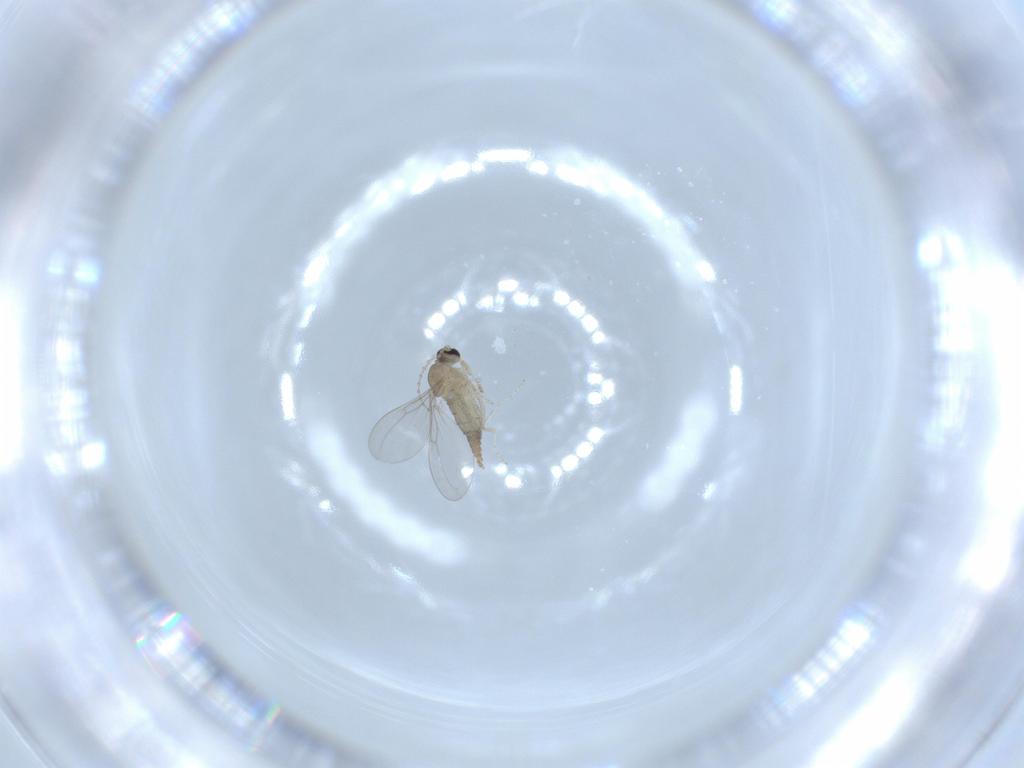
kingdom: Animalia
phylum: Arthropoda
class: Insecta
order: Diptera
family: Cecidomyiidae
